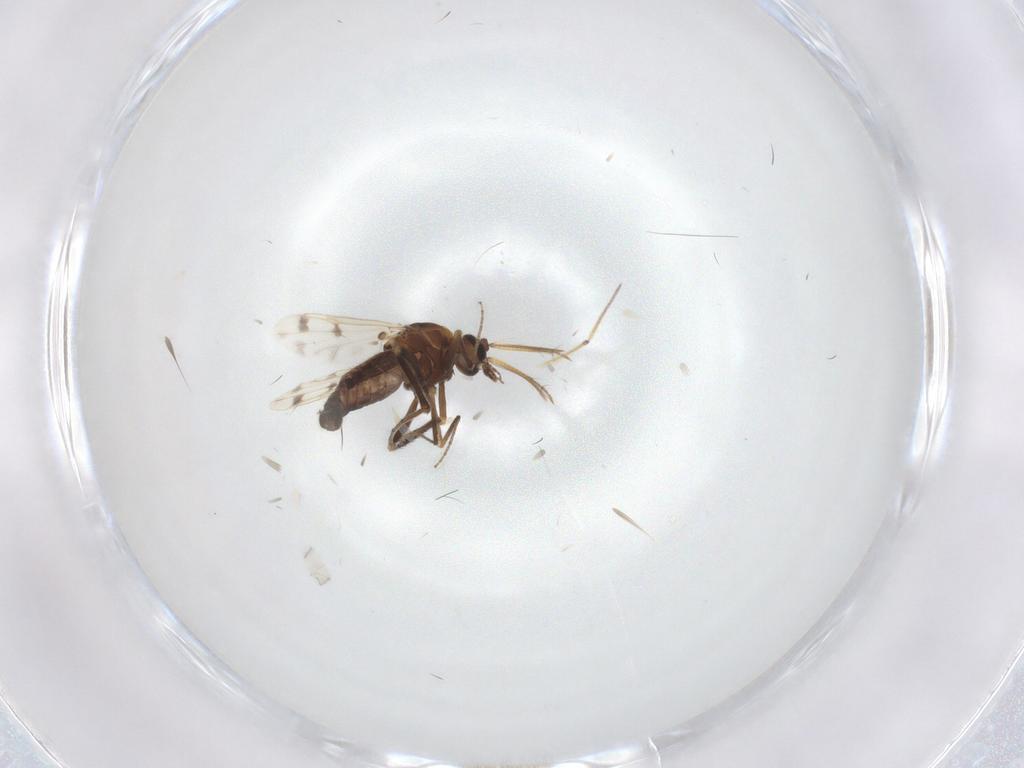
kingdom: Animalia
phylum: Arthropoda
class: Insecta
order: Diptera
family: Ceratopogonidae
